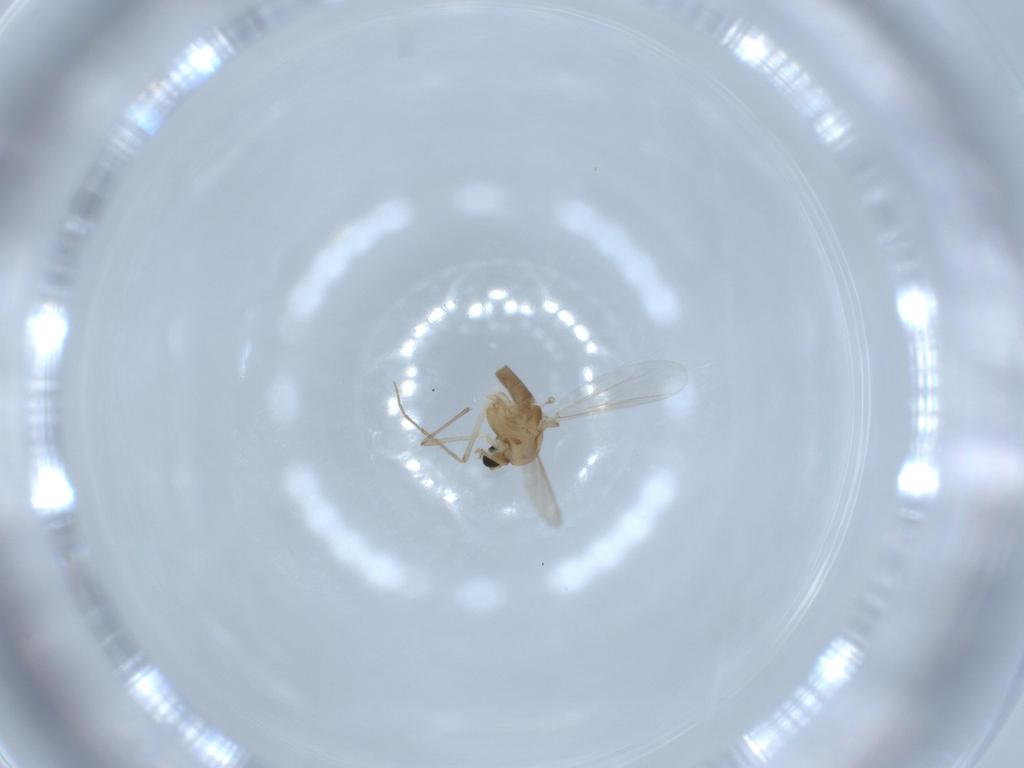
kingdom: Animalia
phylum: Arthropoda
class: Insecta
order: Diptera
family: Chironomidae
